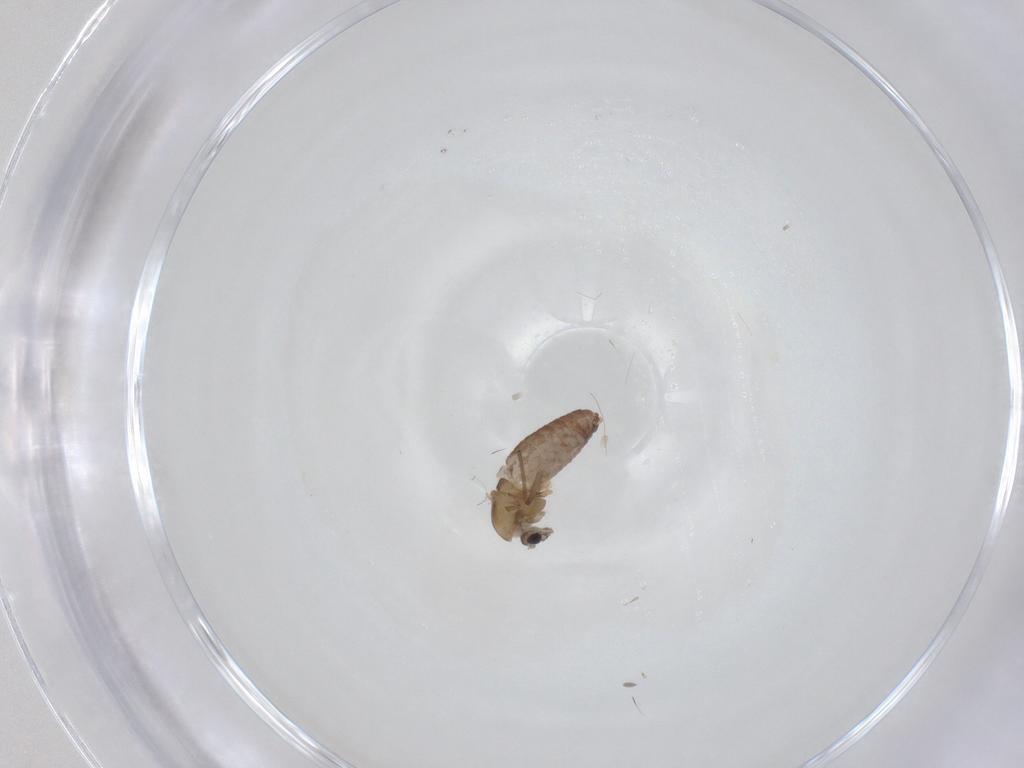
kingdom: Animalia
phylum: Arthropoda
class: Insecta
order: Diptera
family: Chironomidae
